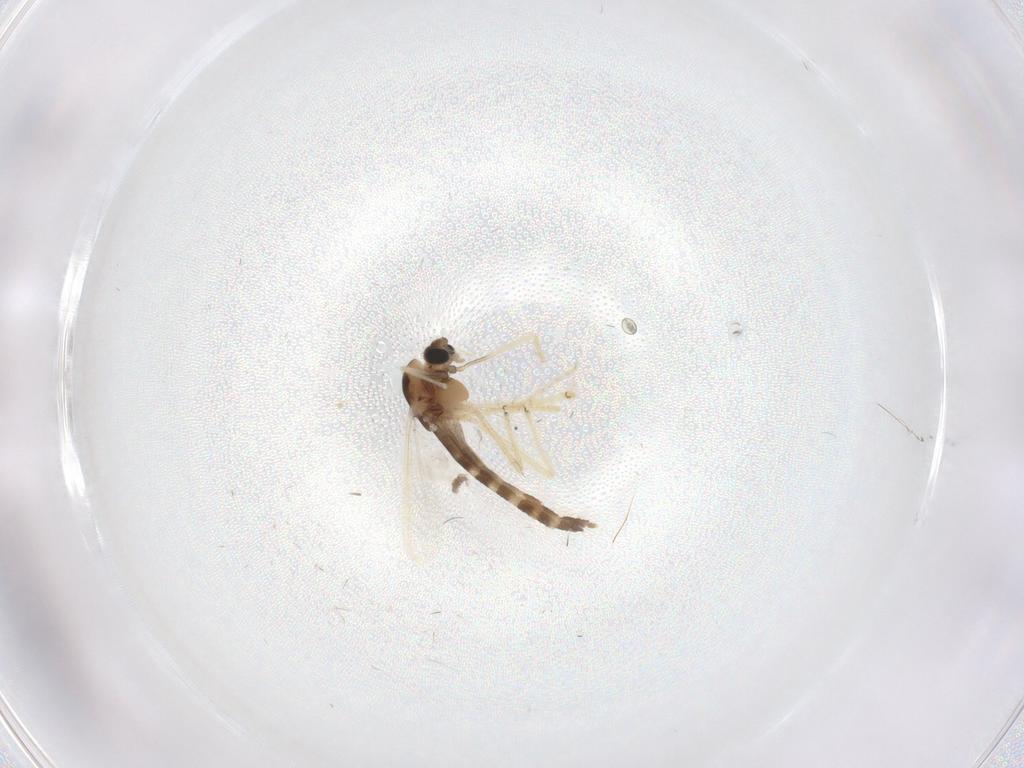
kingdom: Animalia
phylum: Arthropoda
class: Insecta
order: Diptera
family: Chironomidae
